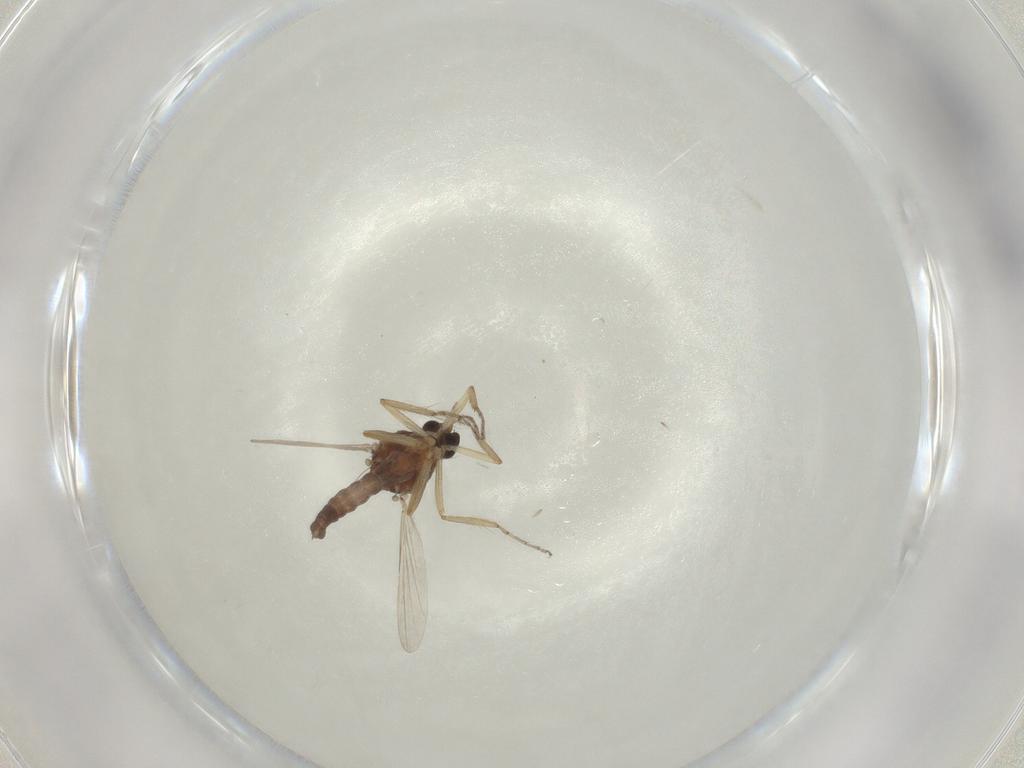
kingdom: Animalia
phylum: Arthropoda
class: Insecta
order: Diptera
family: Ceratopogonidae
